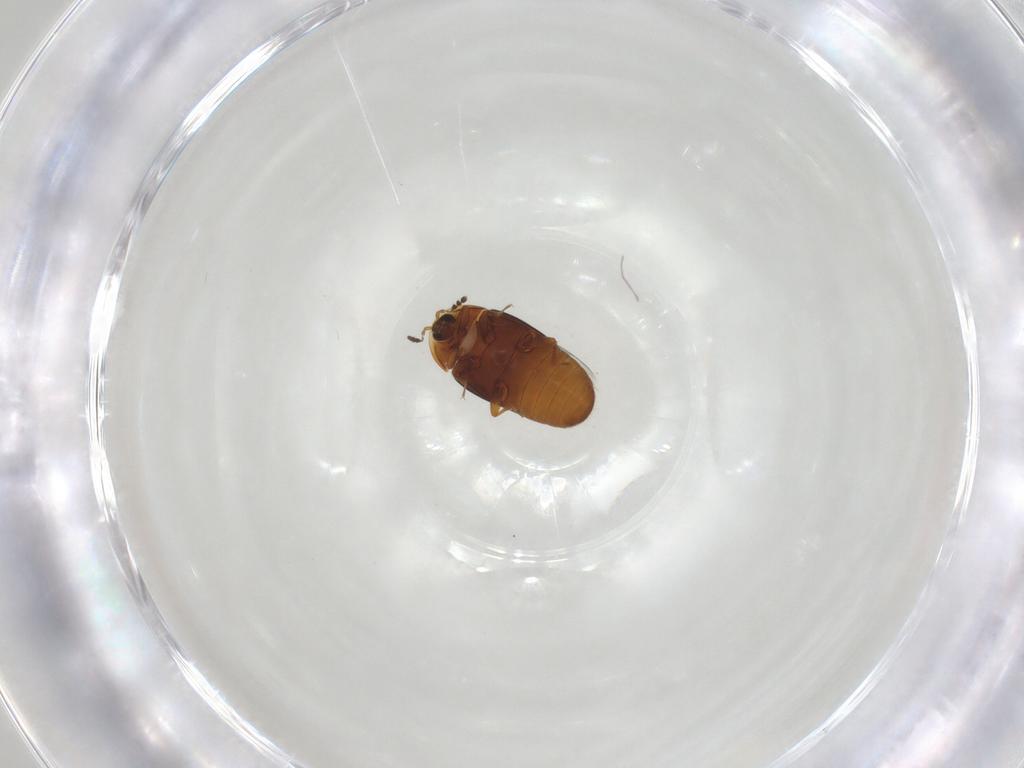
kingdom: Animalia
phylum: Arthropoda
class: Insecta
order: Coleoptera
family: Corylophidae
